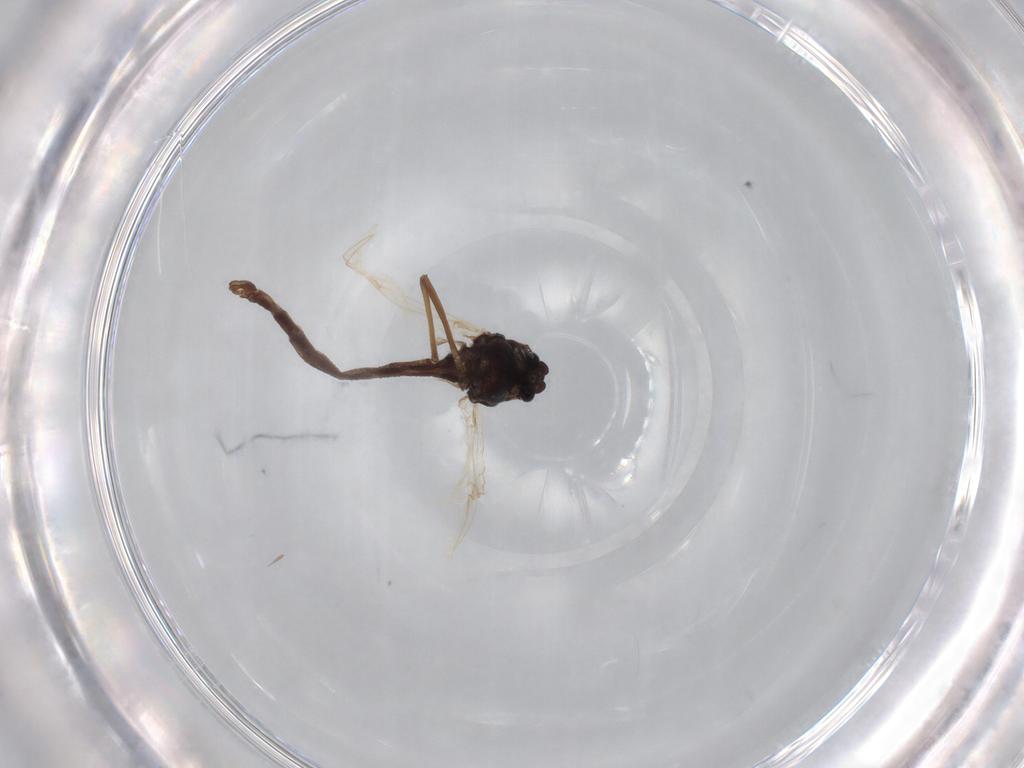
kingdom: Animalia
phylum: Arthropoda
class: Insecta
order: Diptera
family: Chironomidae
